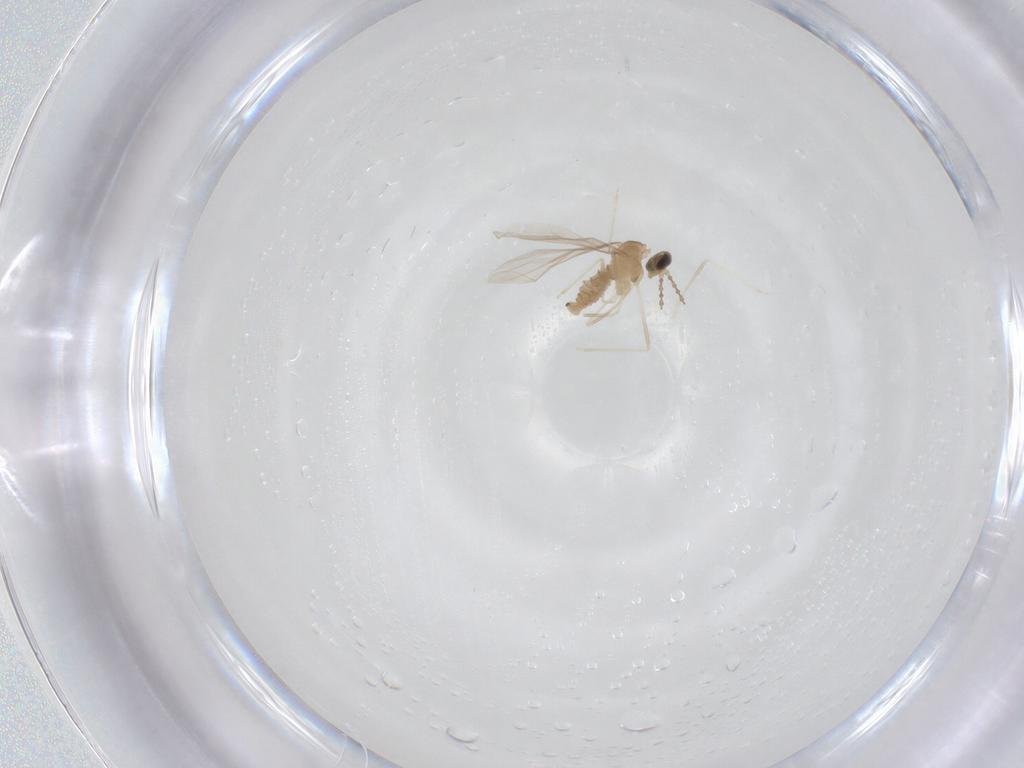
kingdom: Animalia
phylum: Arthropoda
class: Insecta
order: Diptera
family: Cecidomyiidae
